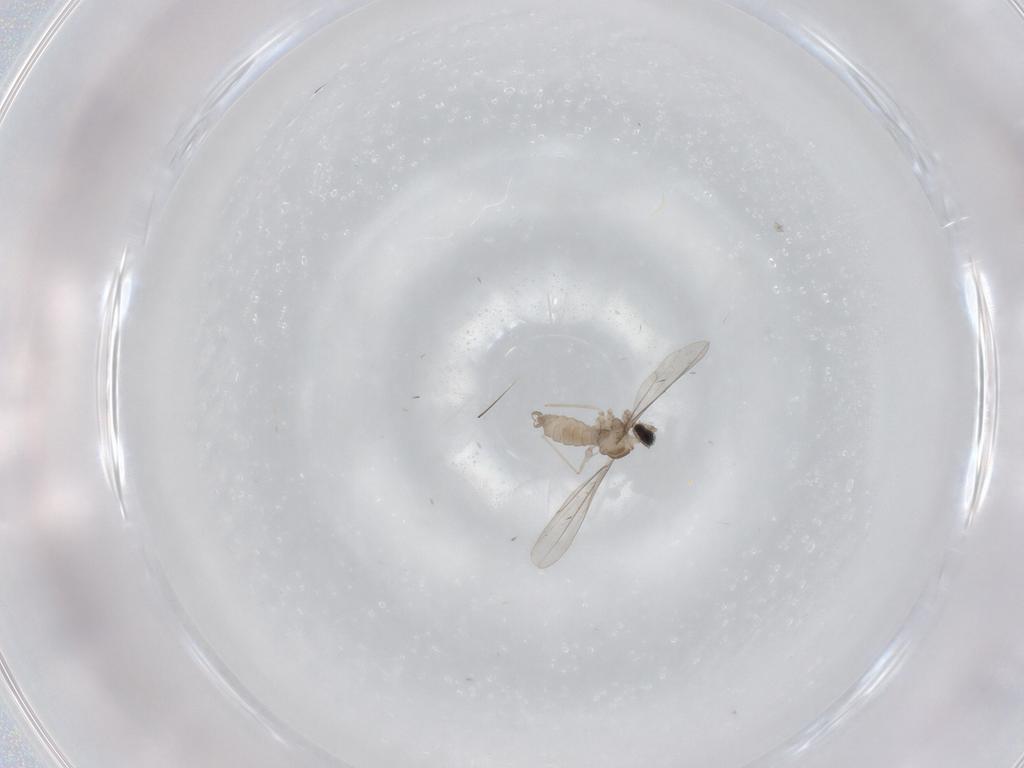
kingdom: Animalia
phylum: Arthropoda
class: Insecta
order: Diptera
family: Cecidomyiidae
